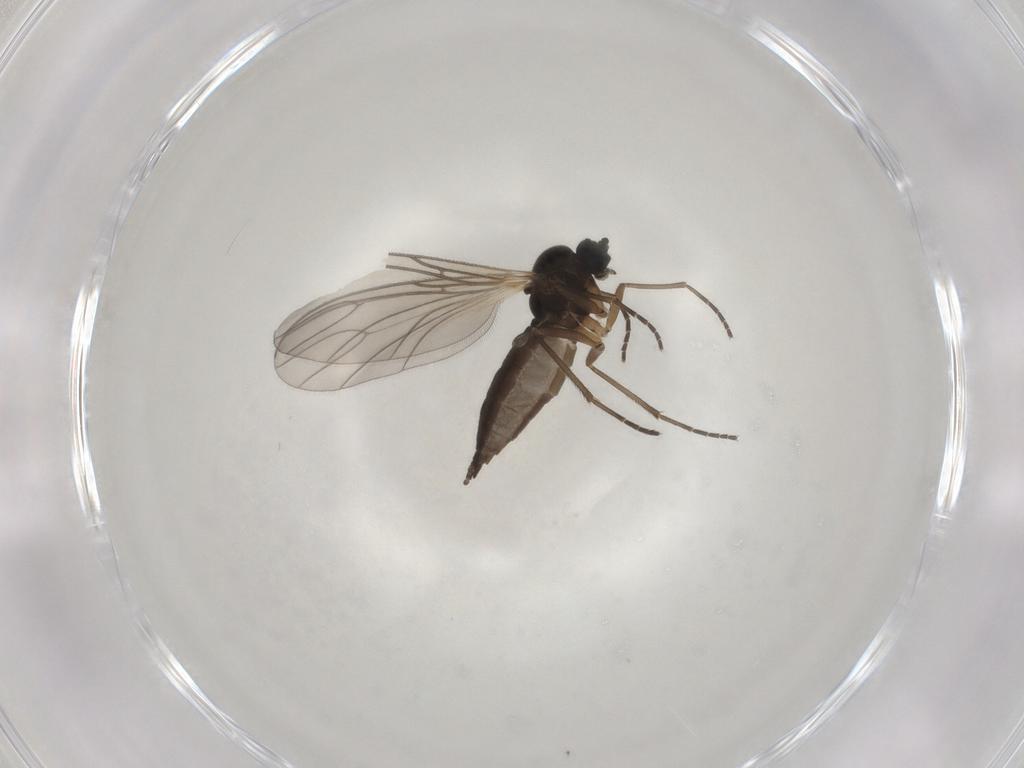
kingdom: Animalia
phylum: Arthropoda
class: Insecta
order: Diptera
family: Sciaridae
